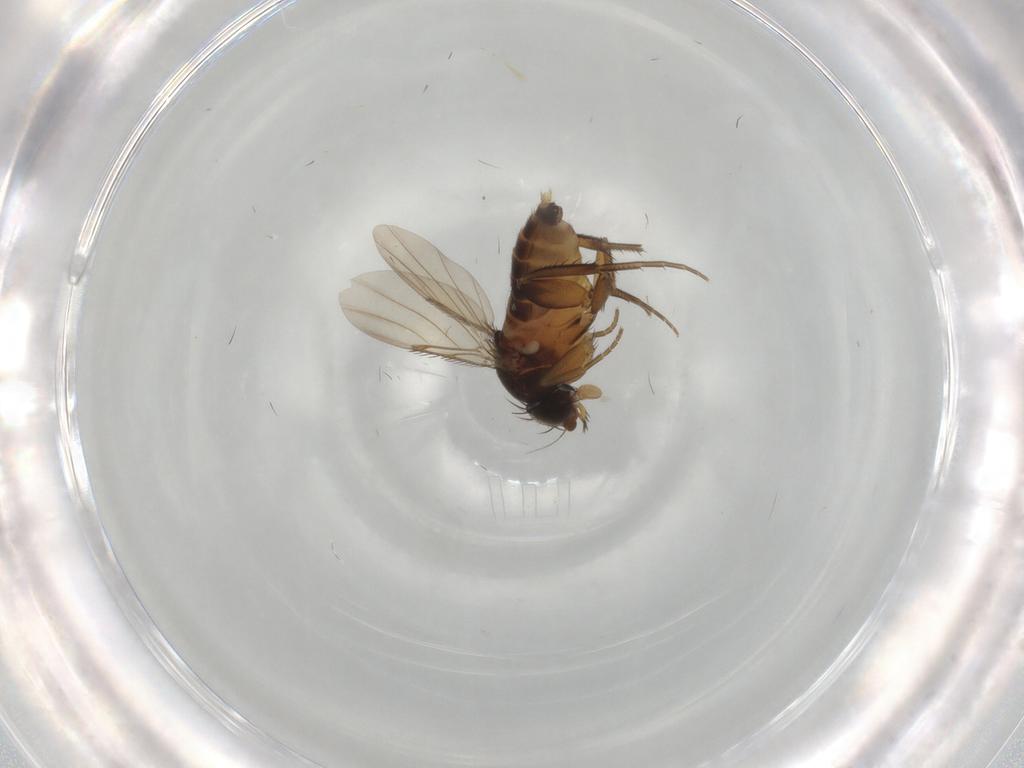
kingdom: Animalia
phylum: Arthropoda
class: Insecta
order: Diptera
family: Phoridae
